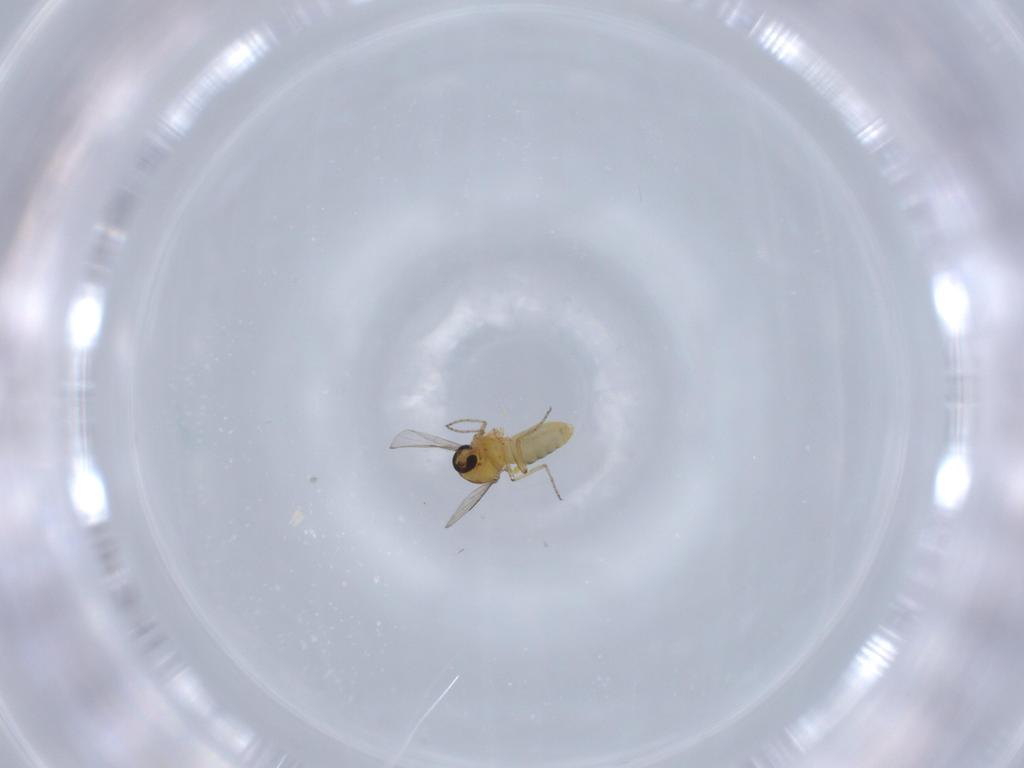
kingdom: Animalia
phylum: Arthropoda
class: Insecta
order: Diptera
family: Ceratopogonidae
